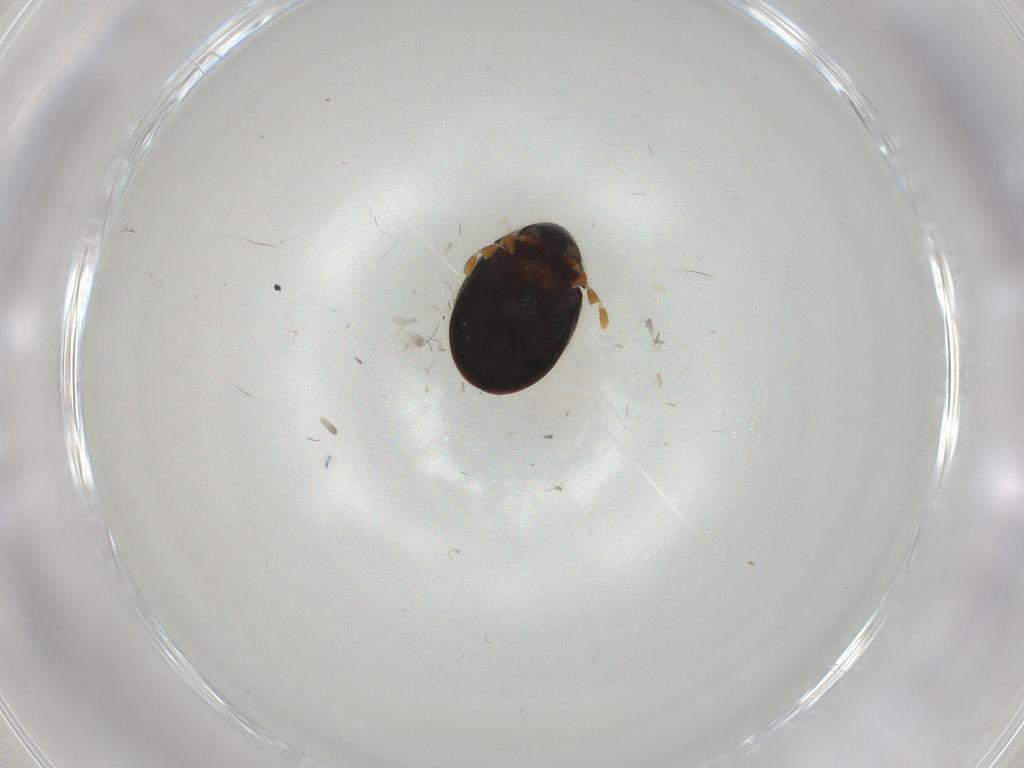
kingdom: Animalia
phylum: Arthropoda
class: Insecta
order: Coleoptera
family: Ptinidae
